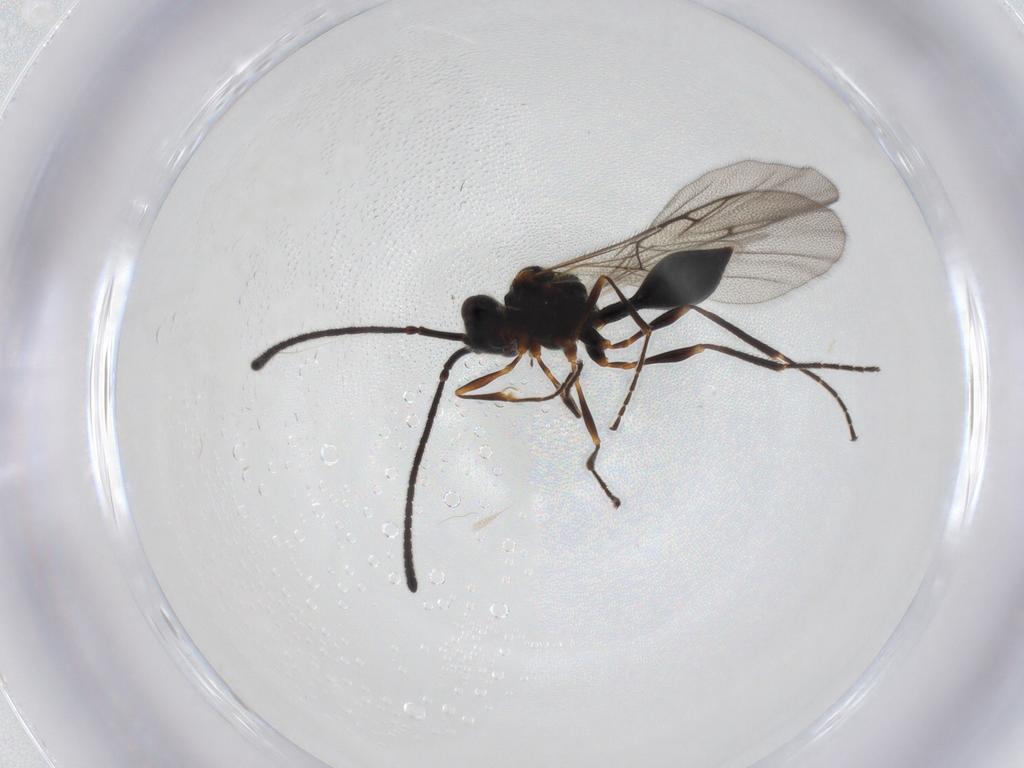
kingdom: Animalia
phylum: Arthropoda
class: Insecta
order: Hymenoptera
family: Diapriidae
